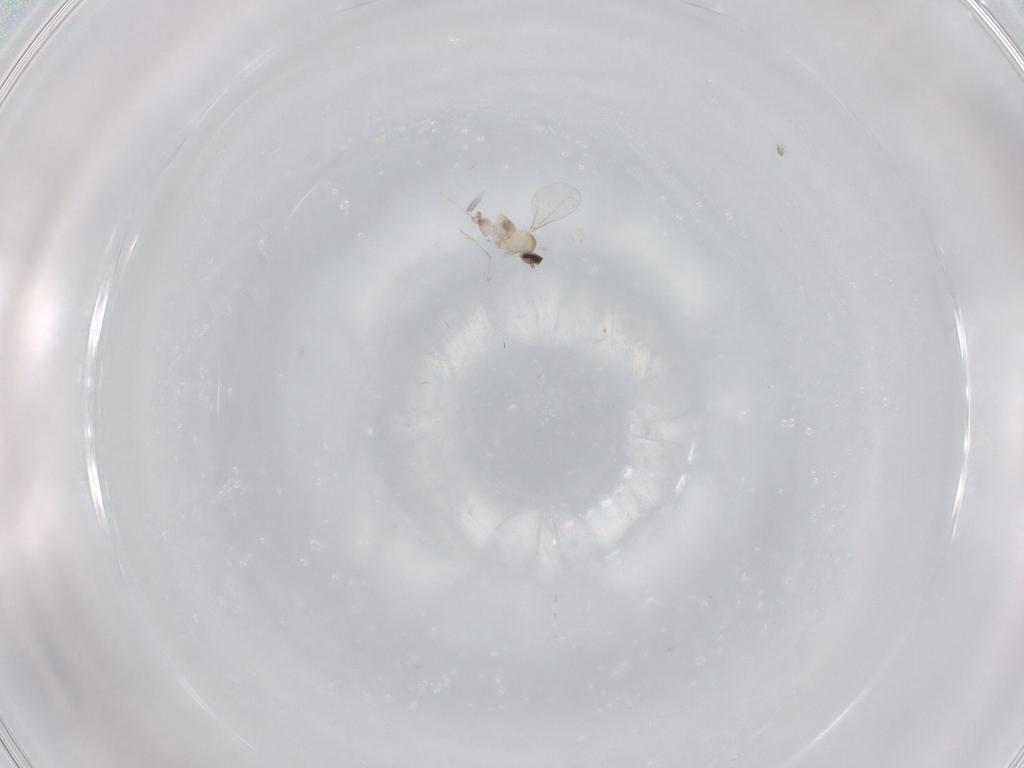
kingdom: Animalia
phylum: Arthropoda
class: Insecta
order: Diptera
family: Cecidomyiidae
